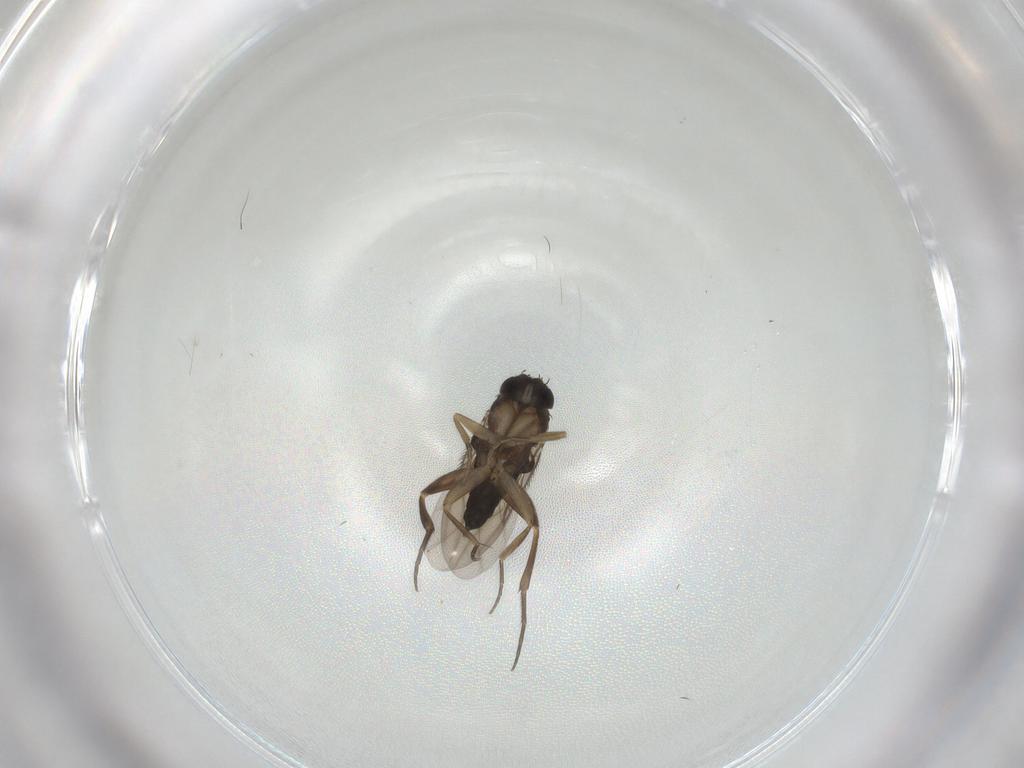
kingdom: Animalia
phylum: Arthropoda
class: Insecta
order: Diptera
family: Phoridae
